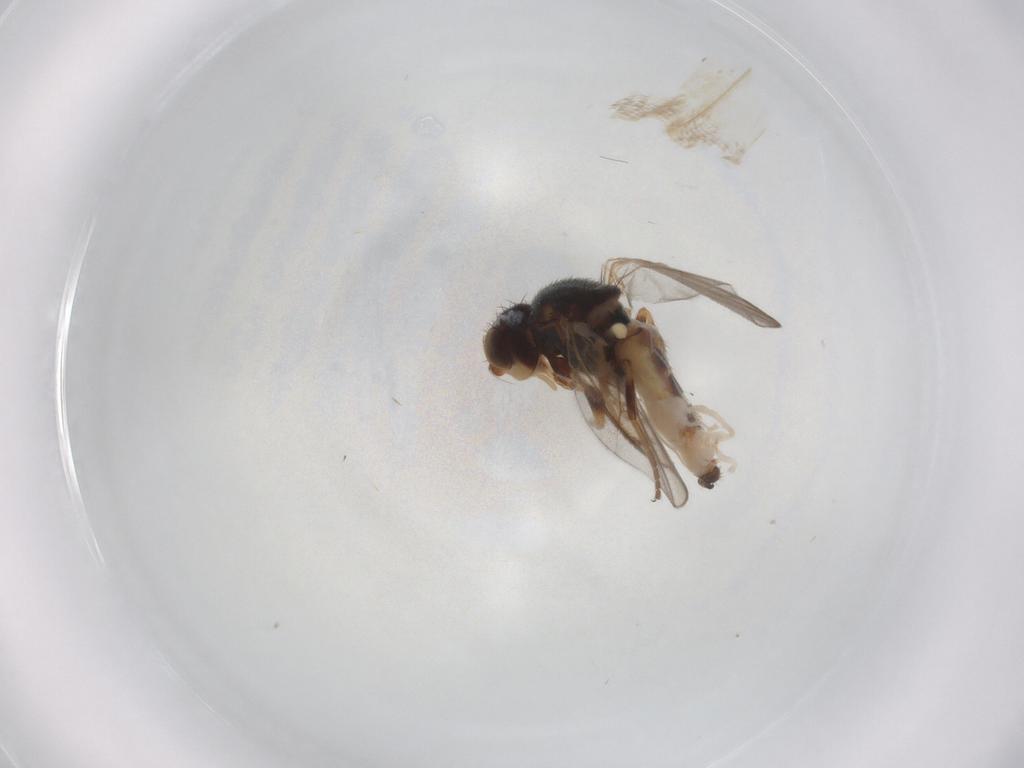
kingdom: Animalia
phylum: Arthropoda
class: Insecta
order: Diptera
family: Chloropidae
